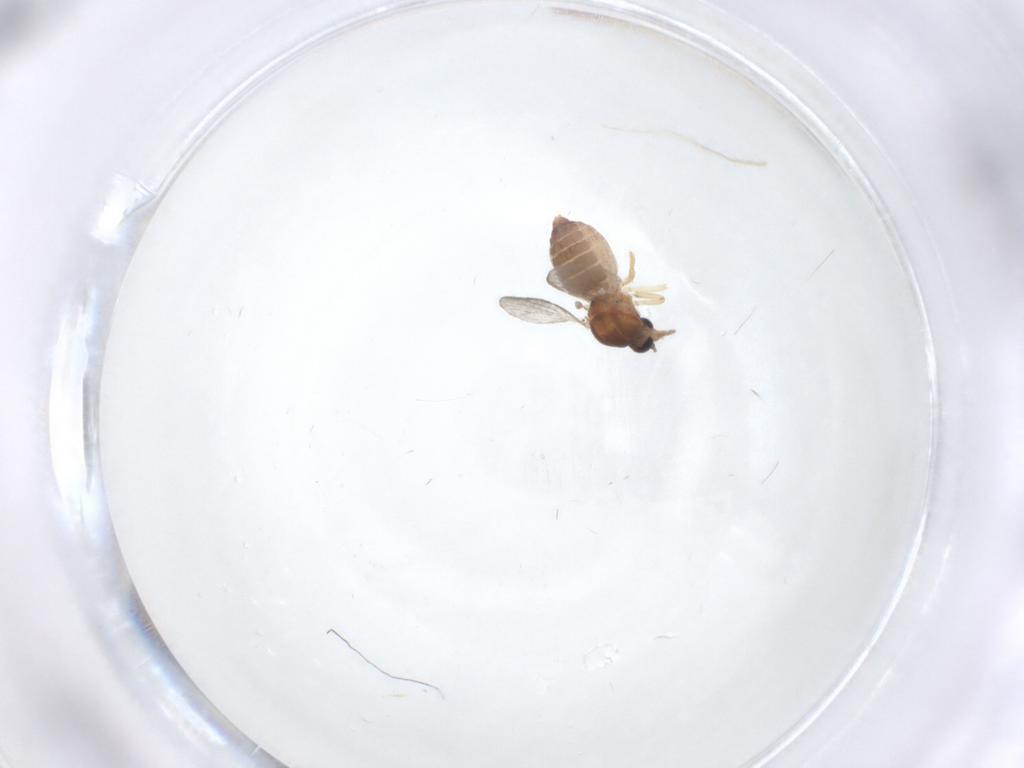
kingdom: Animalia
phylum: Arthropoda
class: Insecta
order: Diptera
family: Ceratopogonidae
